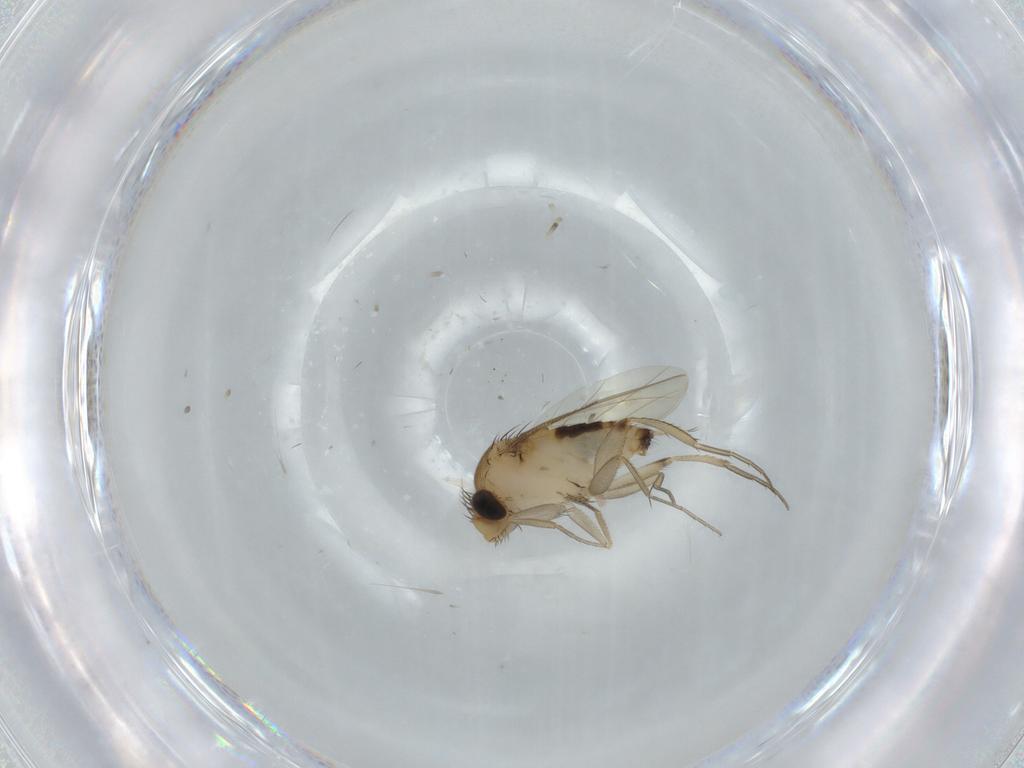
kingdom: Animalia
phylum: Arthropoda
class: Insecta
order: Diptera
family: Phoridae
